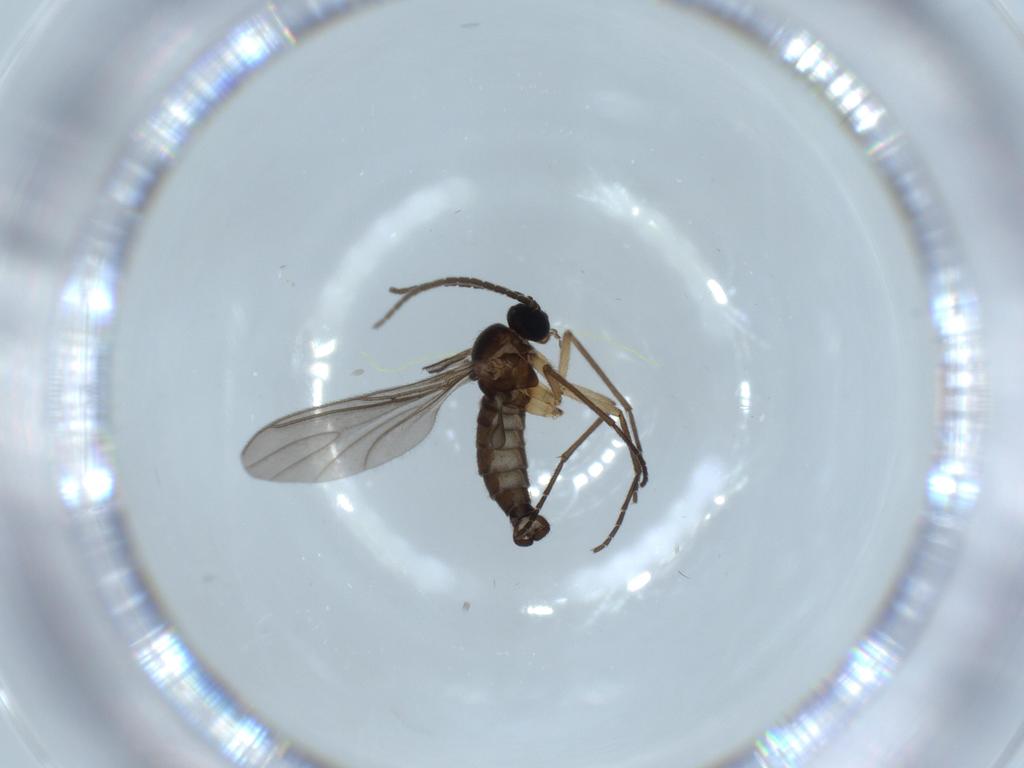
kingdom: Animalia
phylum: Arthropoda
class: Insecta
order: Diptera
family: Sciaridae
